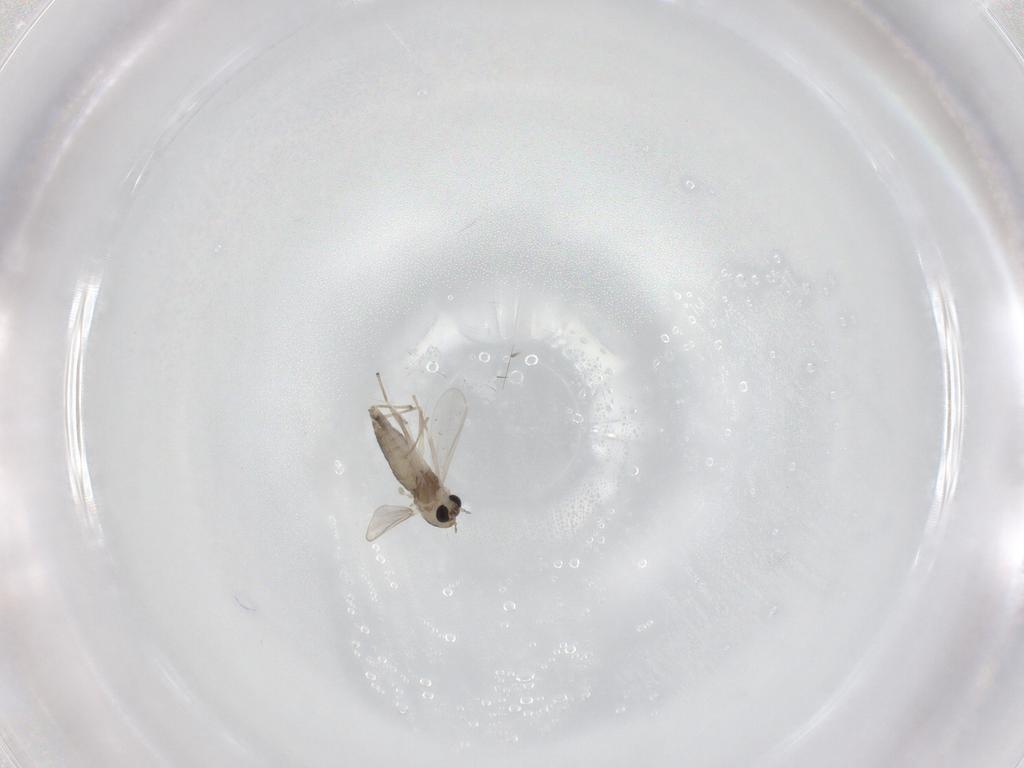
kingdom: Animalia
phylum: Arthropoda
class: Insecta
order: Diptera
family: Chironomidae
